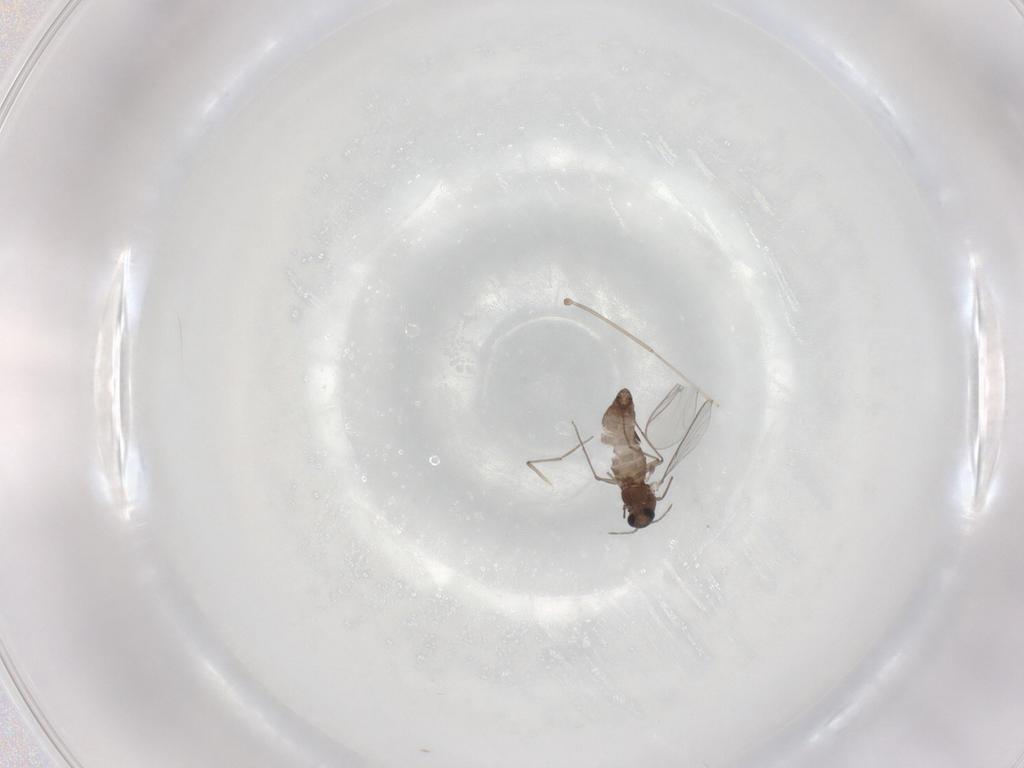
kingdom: Animalia
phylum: Arthropoda
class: Insecta
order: Diptera
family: Chironomidae
